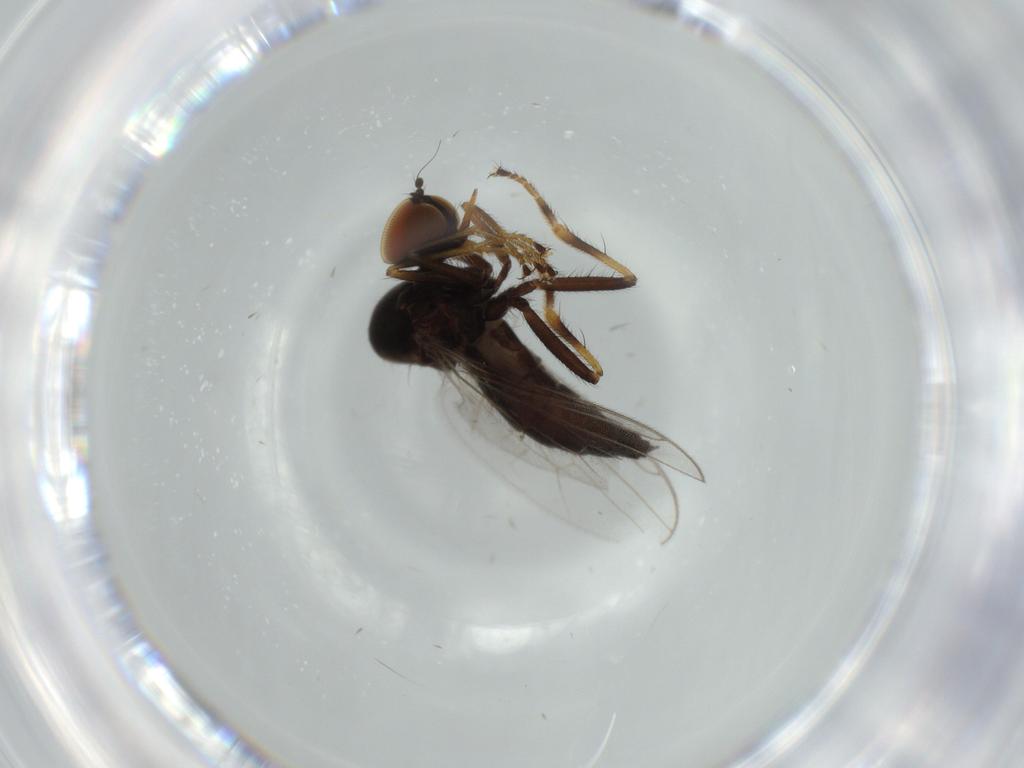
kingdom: Animalia
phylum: Arthropoda
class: Insecta
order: Diptera
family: Hybotidae
